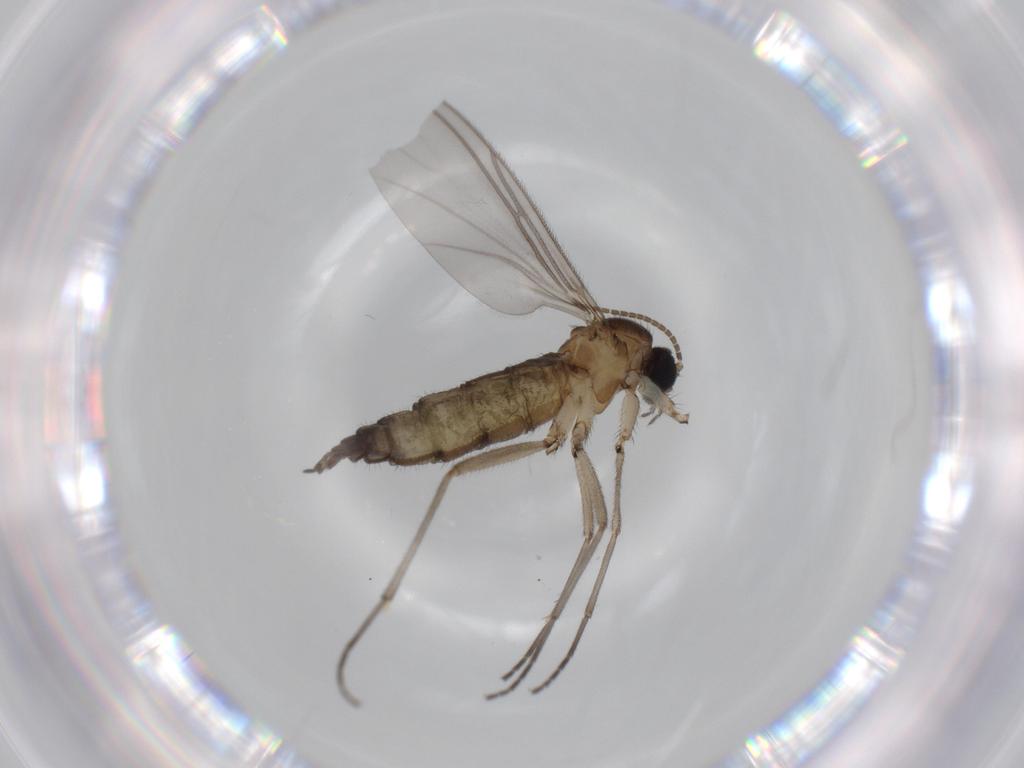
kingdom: Animalia
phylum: Arthropoda
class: Insecta
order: Diptera
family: Sciaridae
